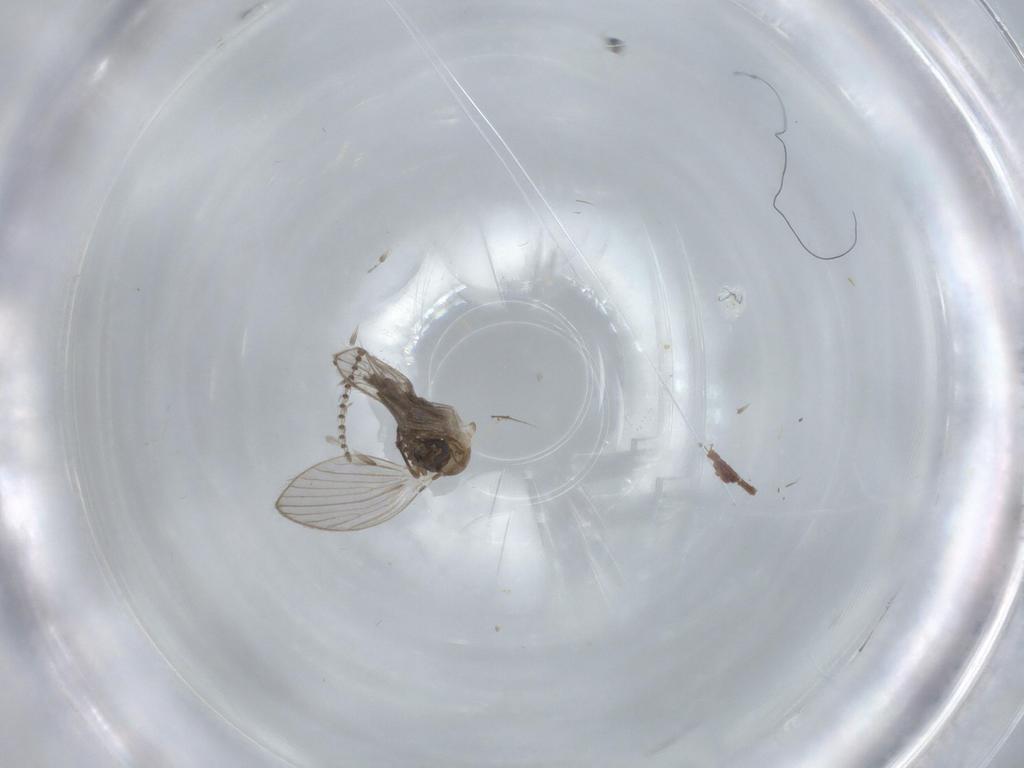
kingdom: Animalia
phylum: Arthropoda
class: Insecta
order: Diptera
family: Psychodidae
